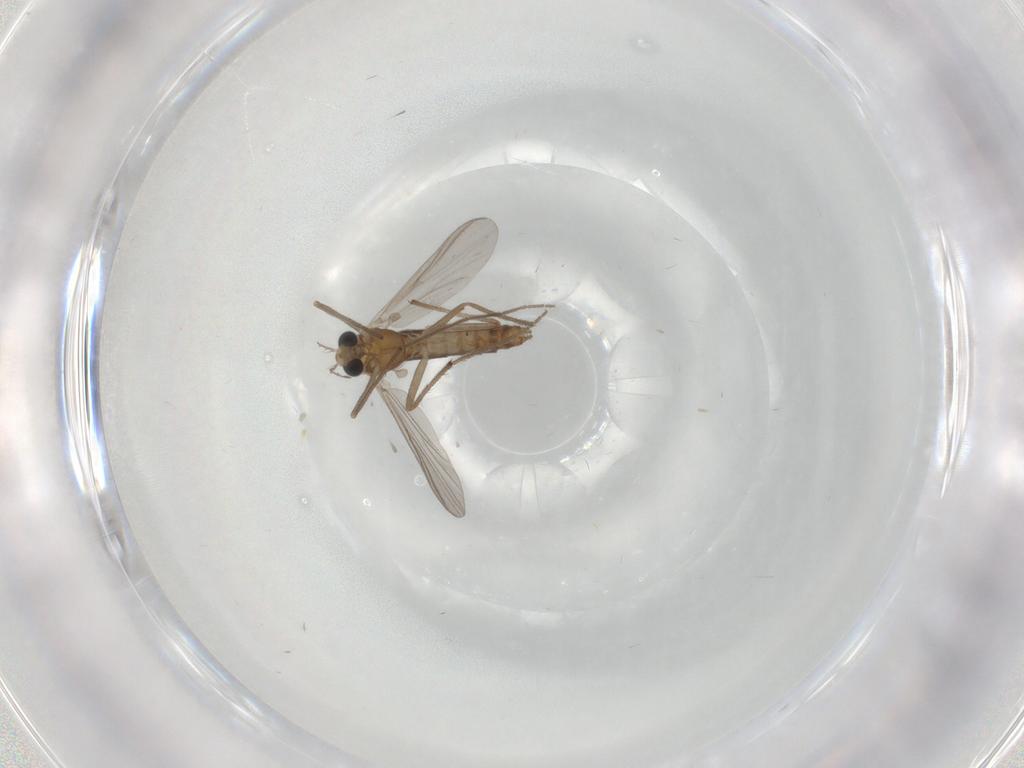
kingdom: Animalia
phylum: Arthropoda
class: Insecta
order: Diptera
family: Chironomidae
